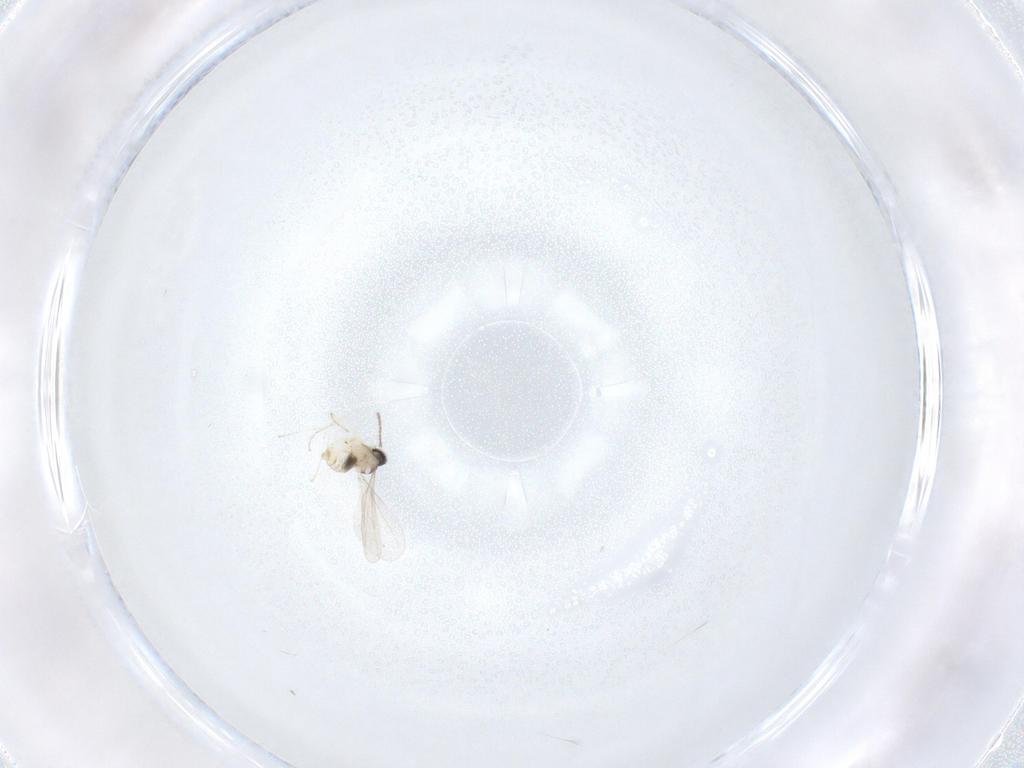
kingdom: Animalia
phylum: Arthropoda
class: Insecta
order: Diptera
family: Cecidomyiidae
